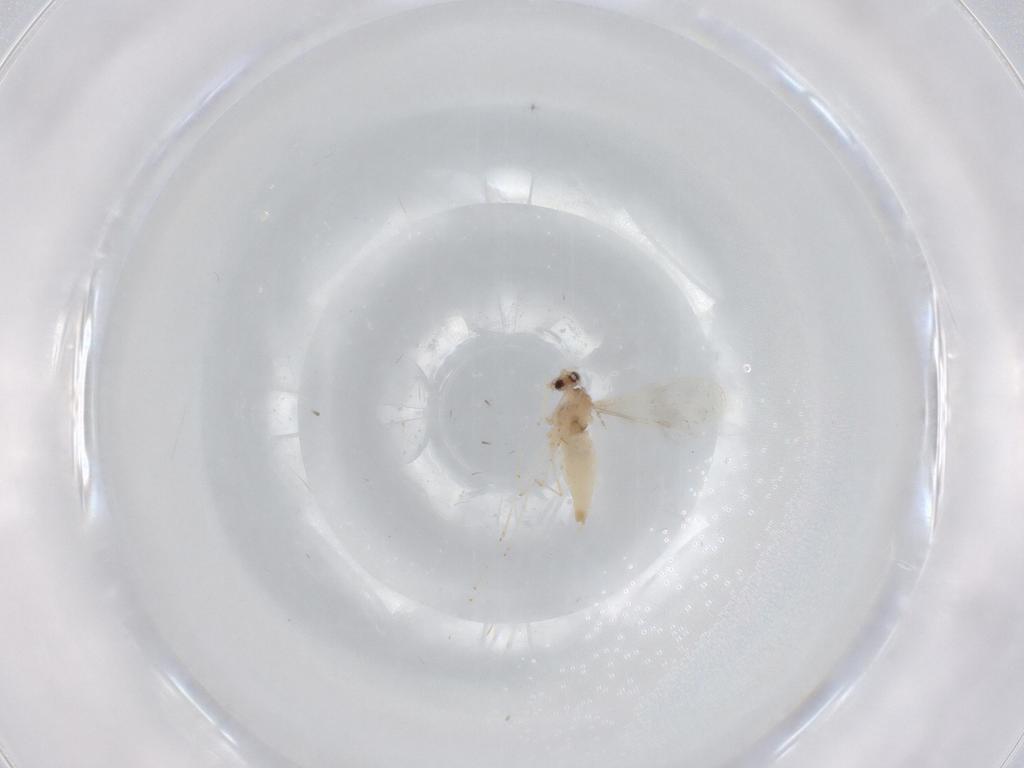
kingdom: Animalia
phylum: Arthropoda
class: Insecta
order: Diptera
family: Cecidomyiidae
